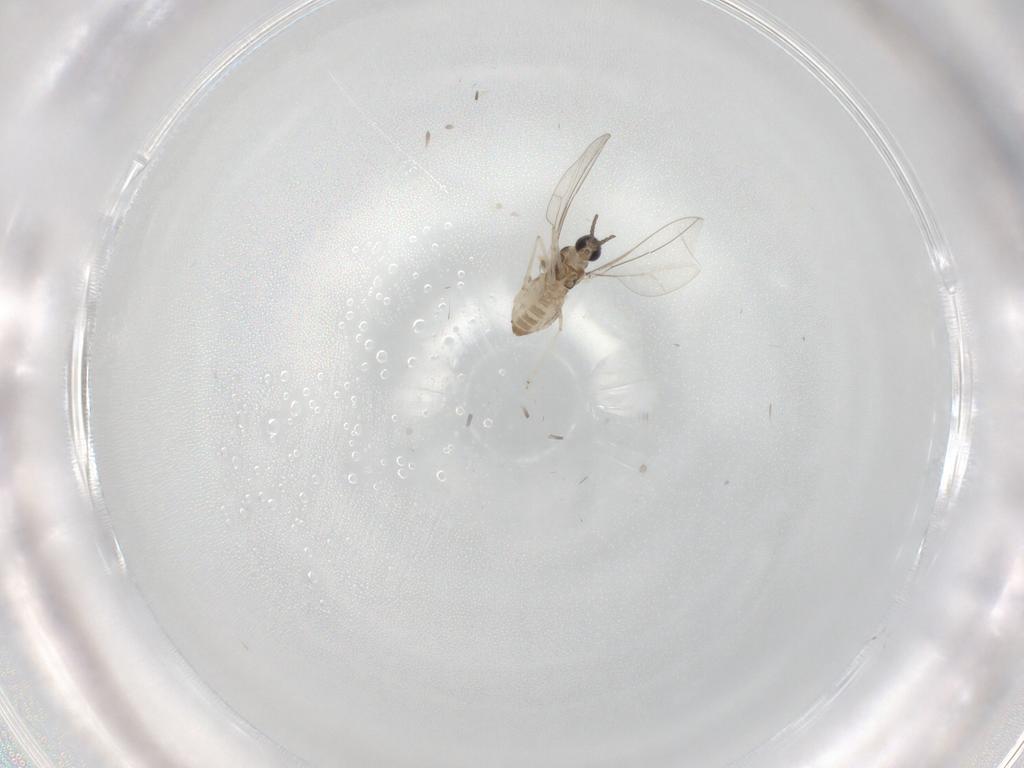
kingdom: Animalia
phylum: Arthropoda
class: Insecta
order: Diptera
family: Cecidomyiidae
